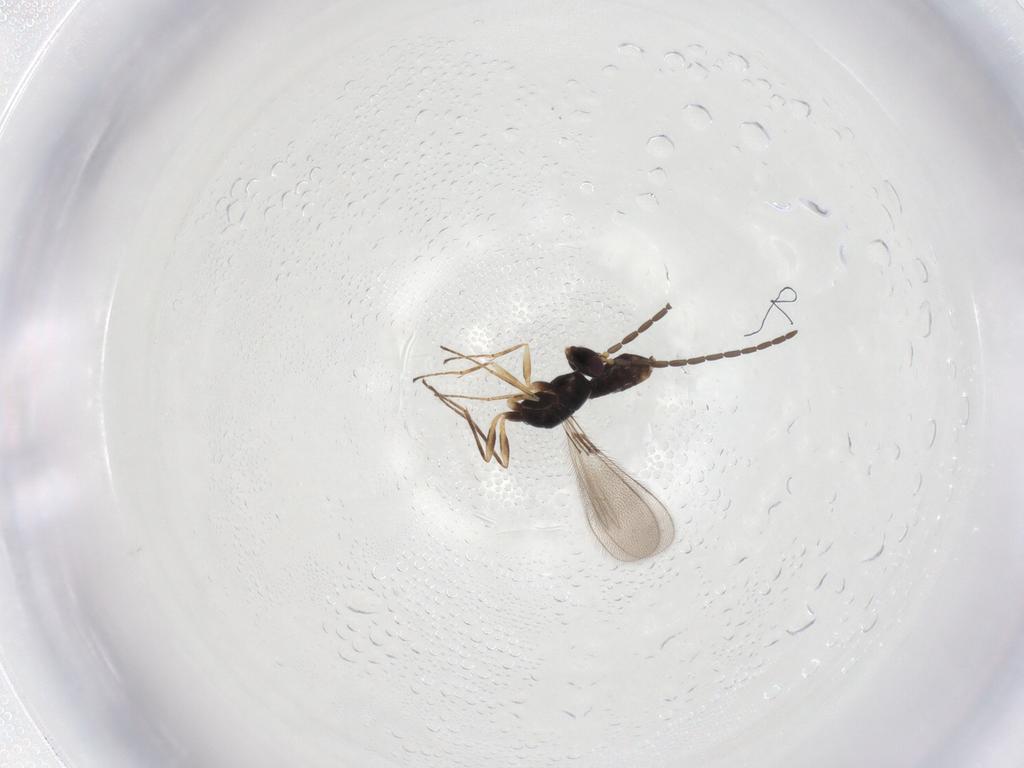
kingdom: Animalia
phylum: Arthropoda
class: Insecta
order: Hymenoptera
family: Mymaridae
